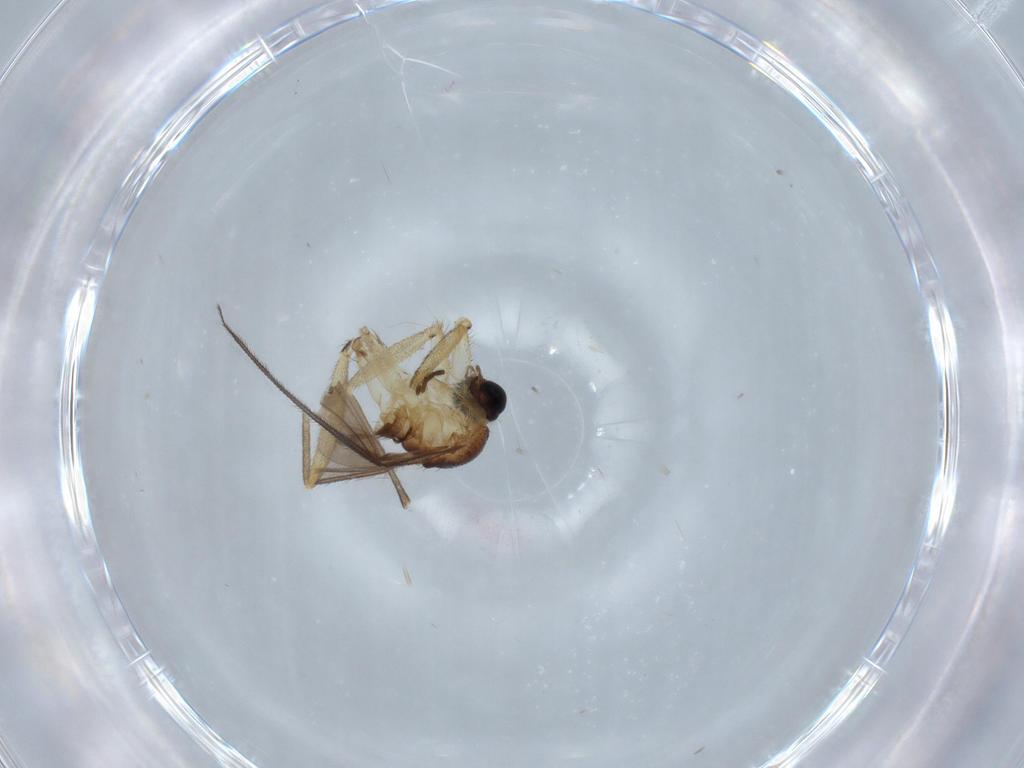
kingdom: Animalia
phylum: Arthropoda
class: Insecta
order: Diptera
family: Sciaridae
